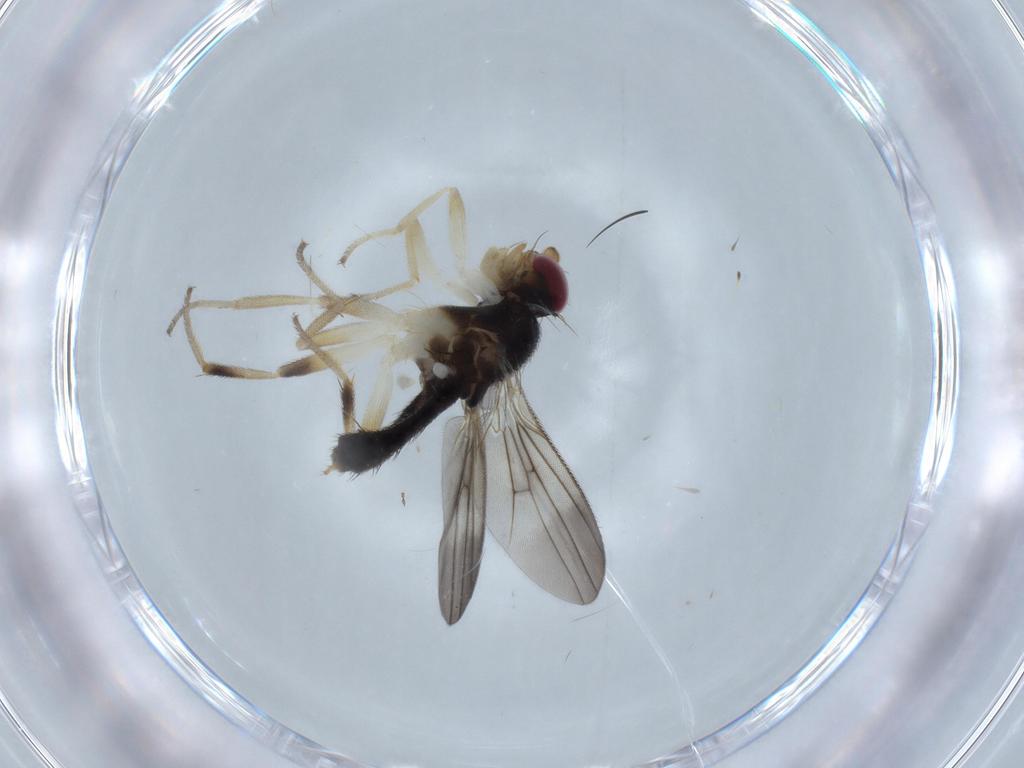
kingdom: Animalia
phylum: Arthropoda
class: Insecta
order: Diptera
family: Clusiidae
